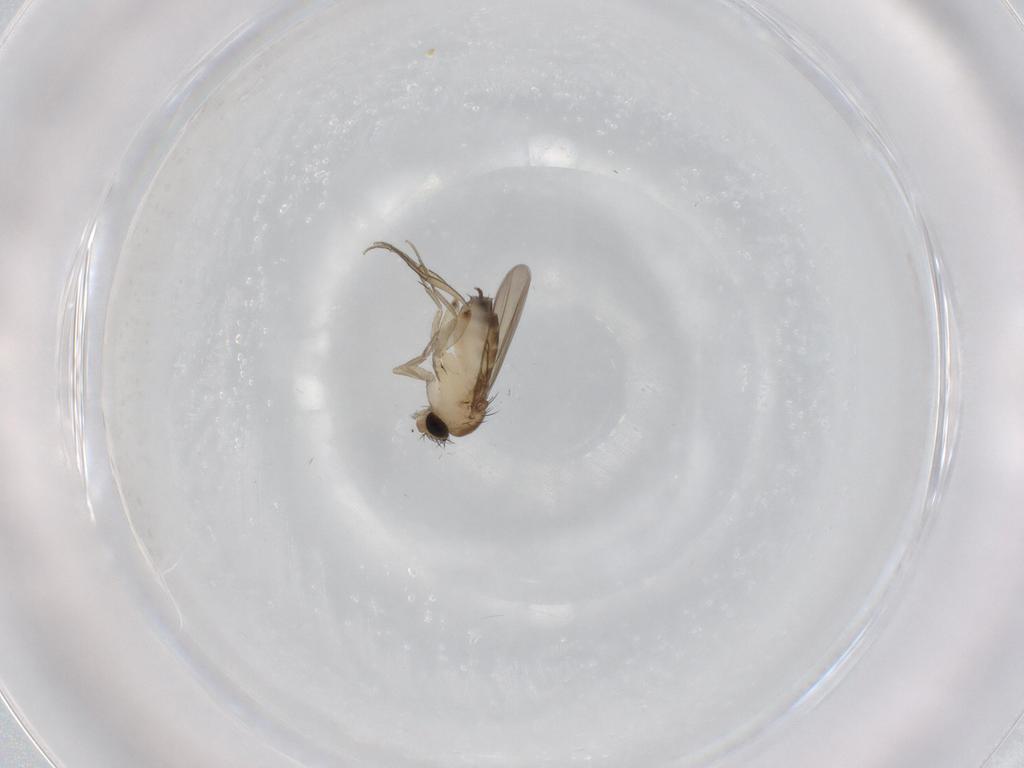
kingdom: Animalia
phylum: Arthropoda
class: Insecta
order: Diptera
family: Phoridae
